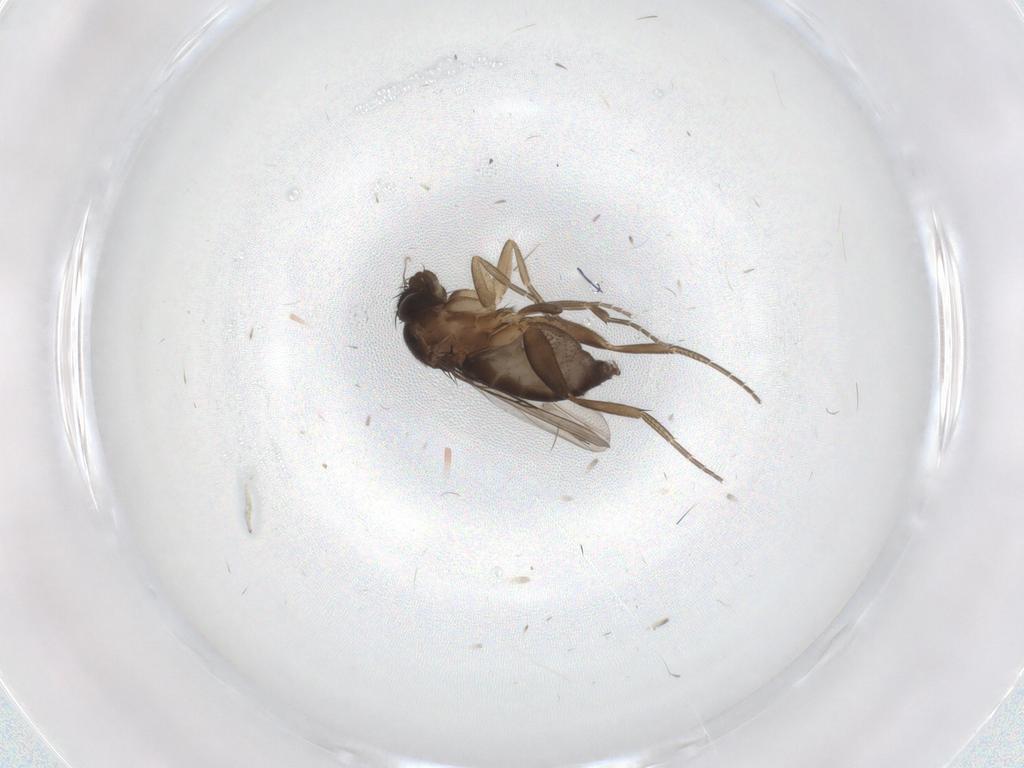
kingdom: Animalia
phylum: Arthropoda
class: Insecta
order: Diptera
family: Phoridae
